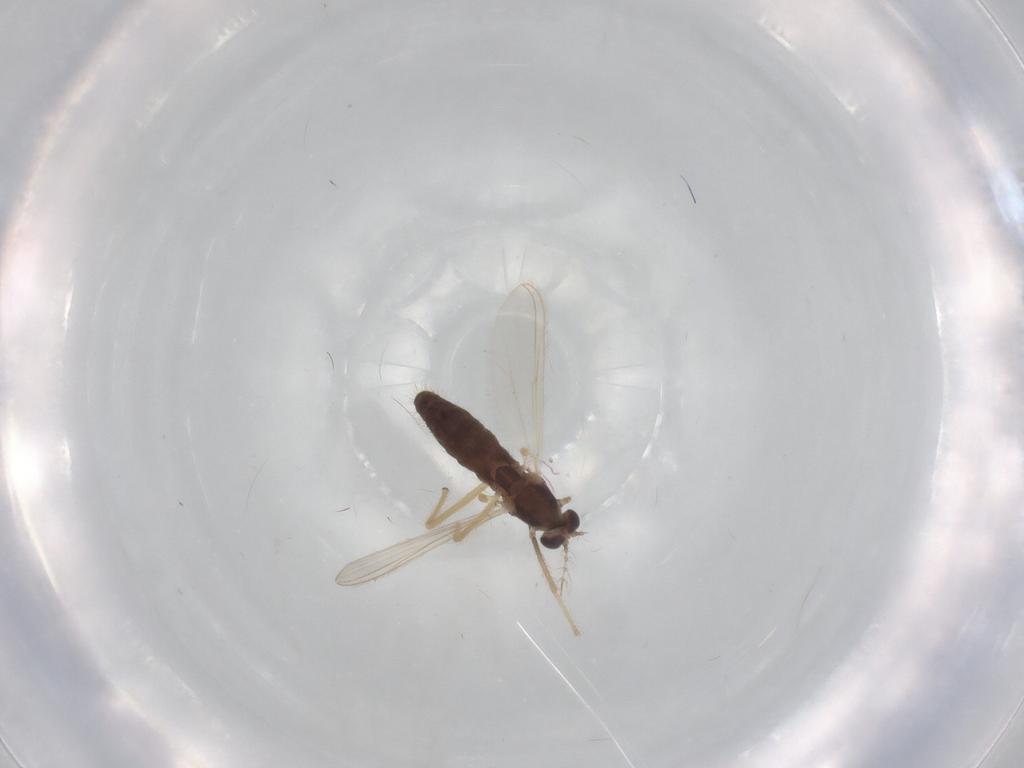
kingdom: Animalia
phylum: Arthropoda
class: Insecta
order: Diptera
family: Chironomidae
